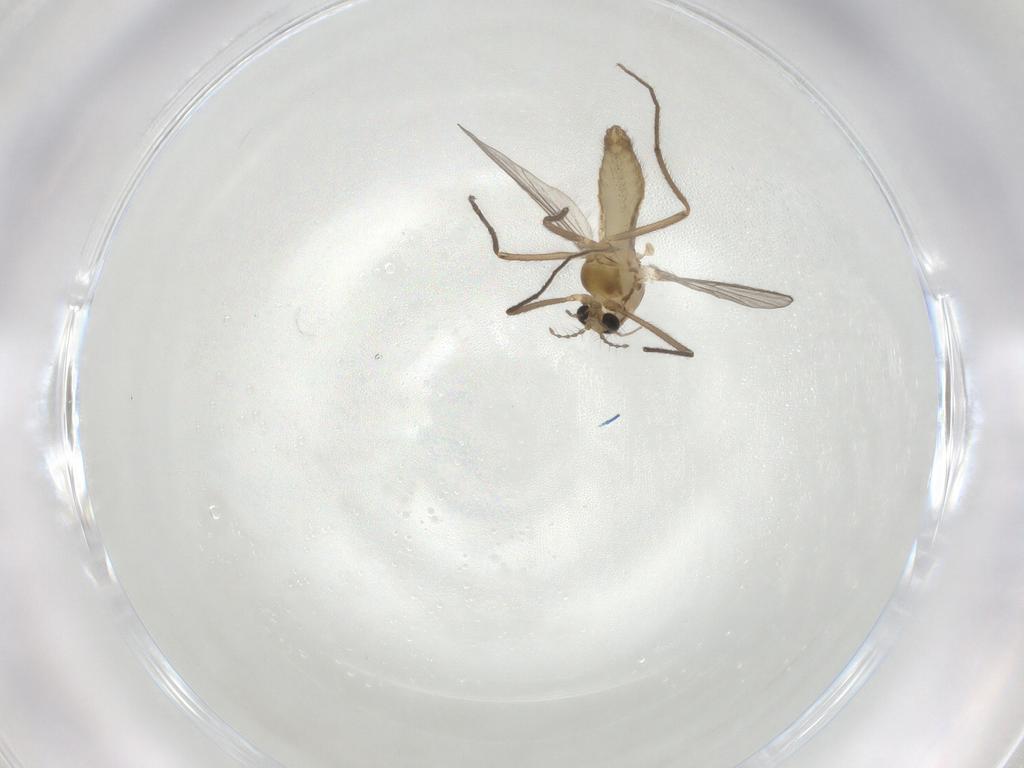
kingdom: Animalia
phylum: Arthropoda
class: Insecta
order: Diptera
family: Chironomidae
